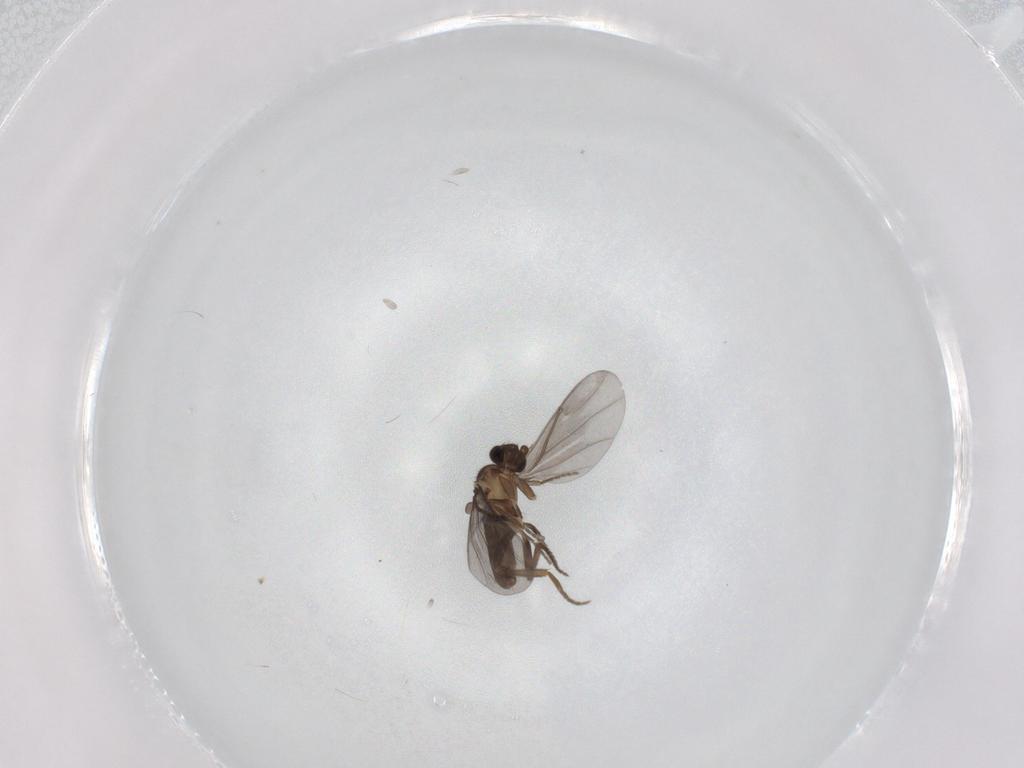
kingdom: Animalia
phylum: Arthropoda
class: Insecta
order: Diptera
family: Phoridae
